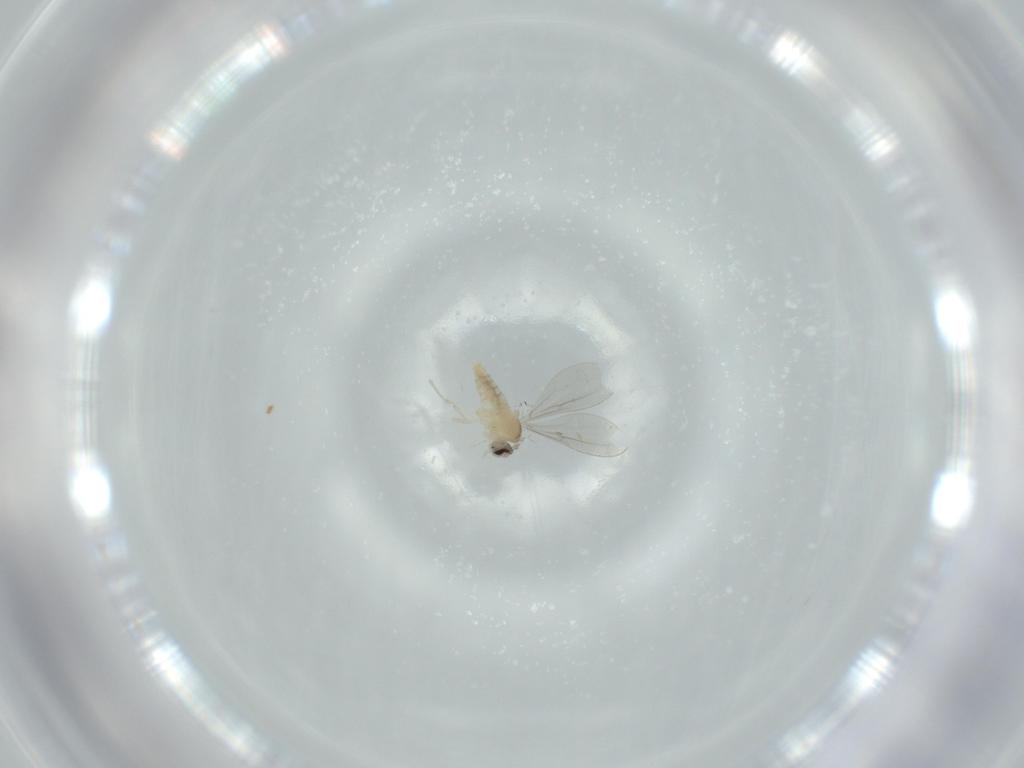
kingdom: Animalia
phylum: Arthropoda
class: Insecta
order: Diptera
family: Cecidomyiidae
